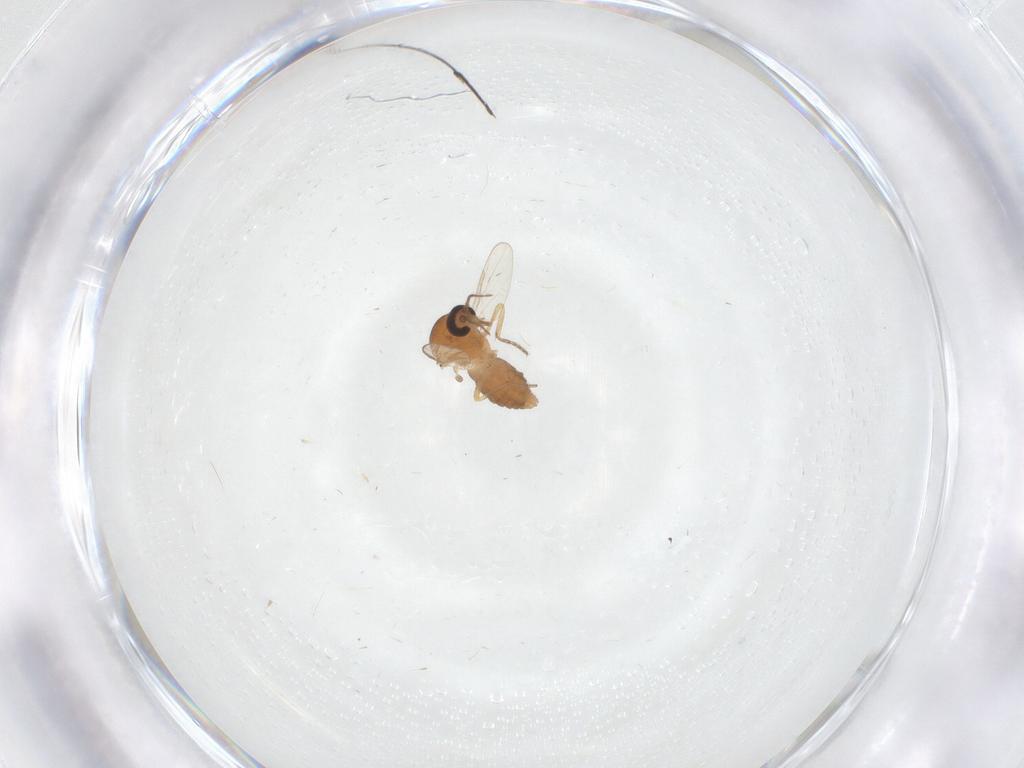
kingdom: Animalia
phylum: Arthropoda
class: Insecta
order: Diptera
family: Ceratopogonidae
